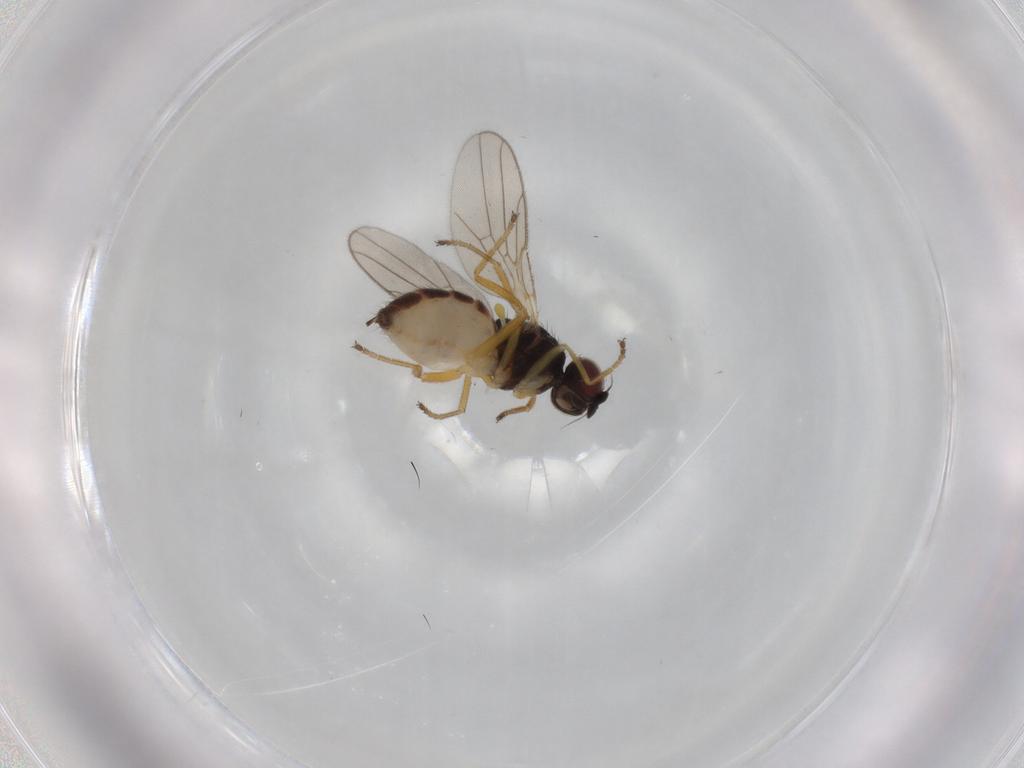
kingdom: Animalia
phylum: Arthropoda
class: Insecta
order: Diptera
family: Chloropidae
